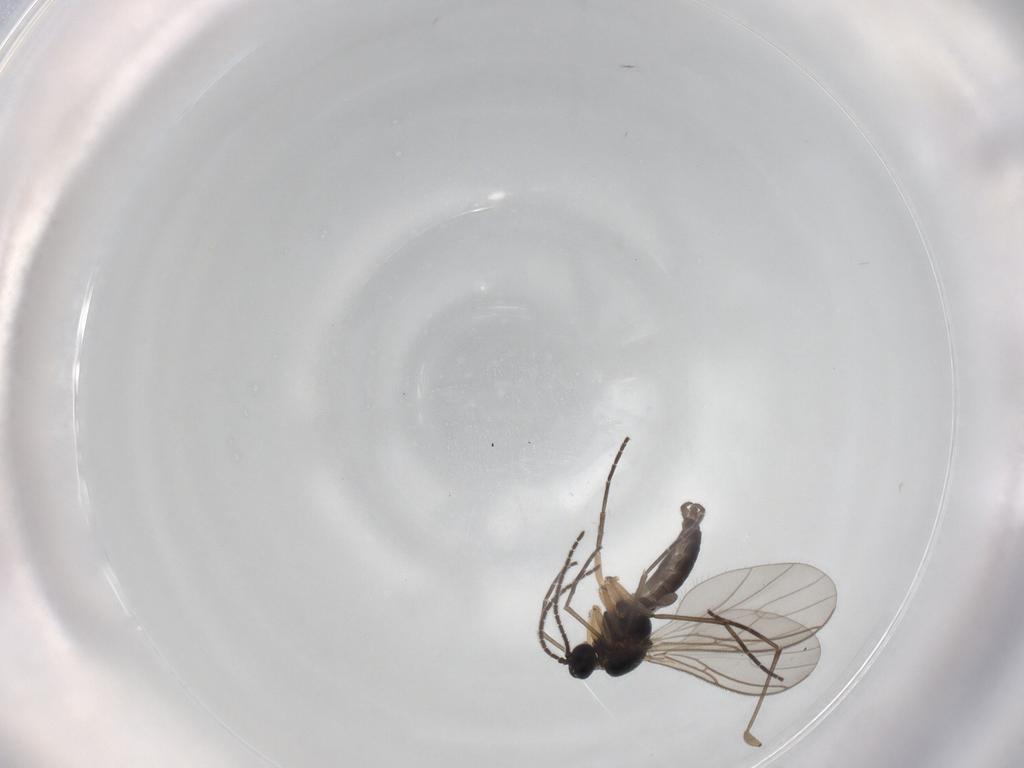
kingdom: Animalia
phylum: Arthropoda
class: Insecta
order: Diptera
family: Sciaridae
